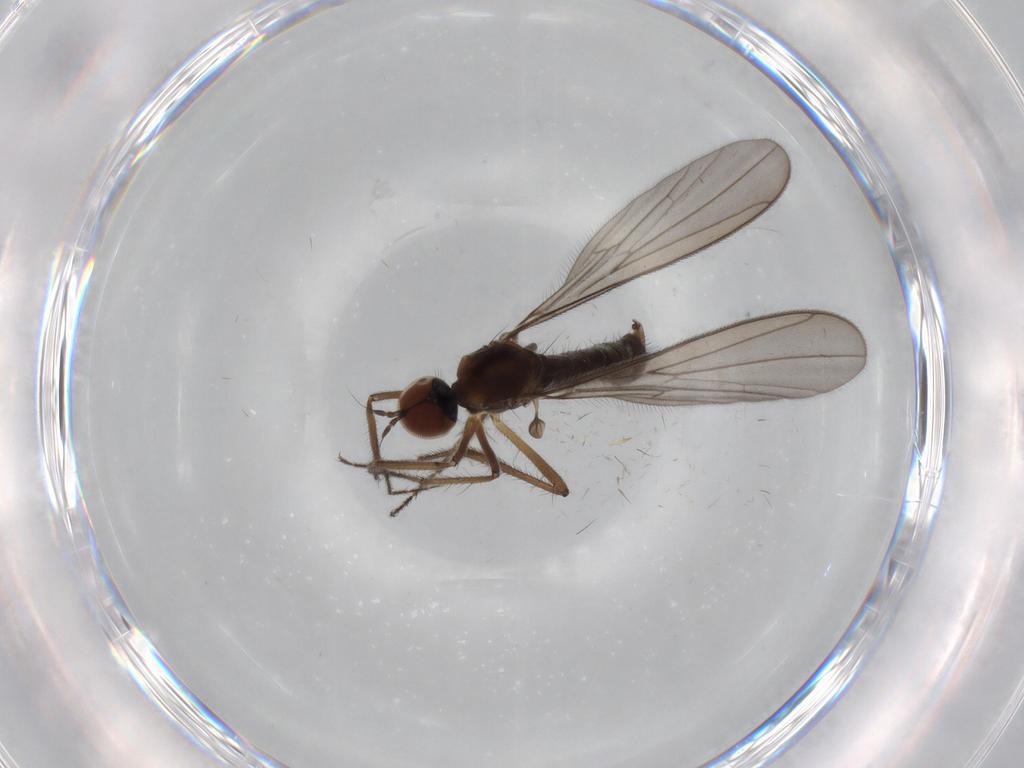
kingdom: Animalia
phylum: Arthropoda
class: Insecta
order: Diptera
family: Hybotidae
